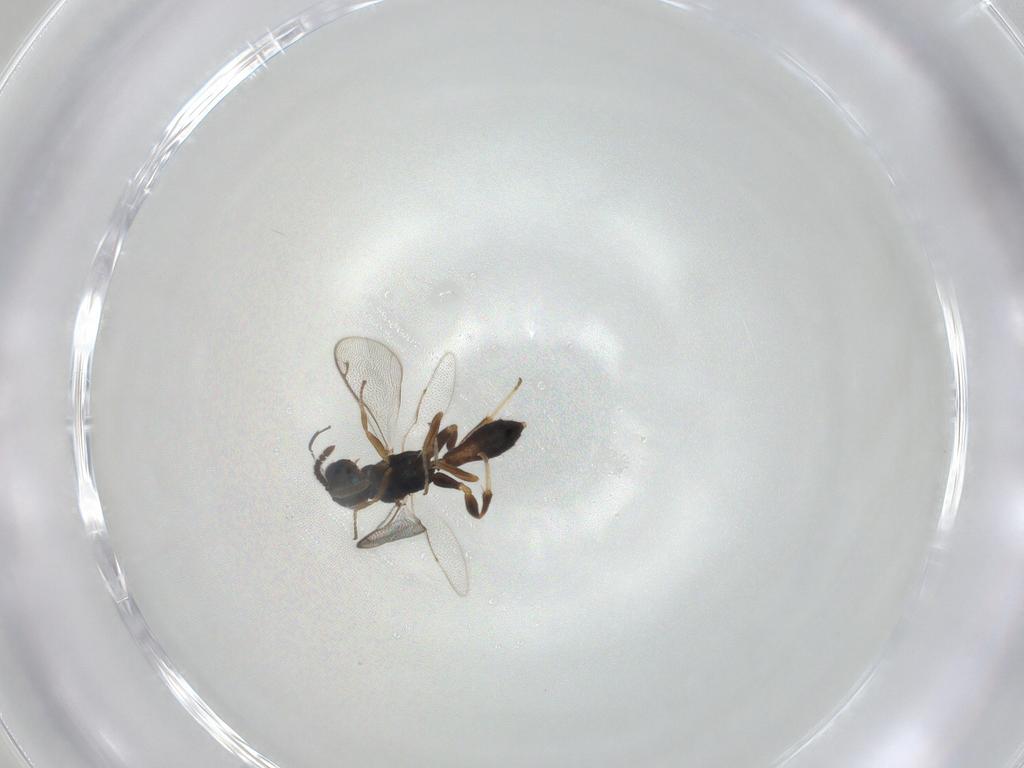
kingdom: Animalia
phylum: Arthropoda
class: Insecta
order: Hymenoptera
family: Cleonyminae
